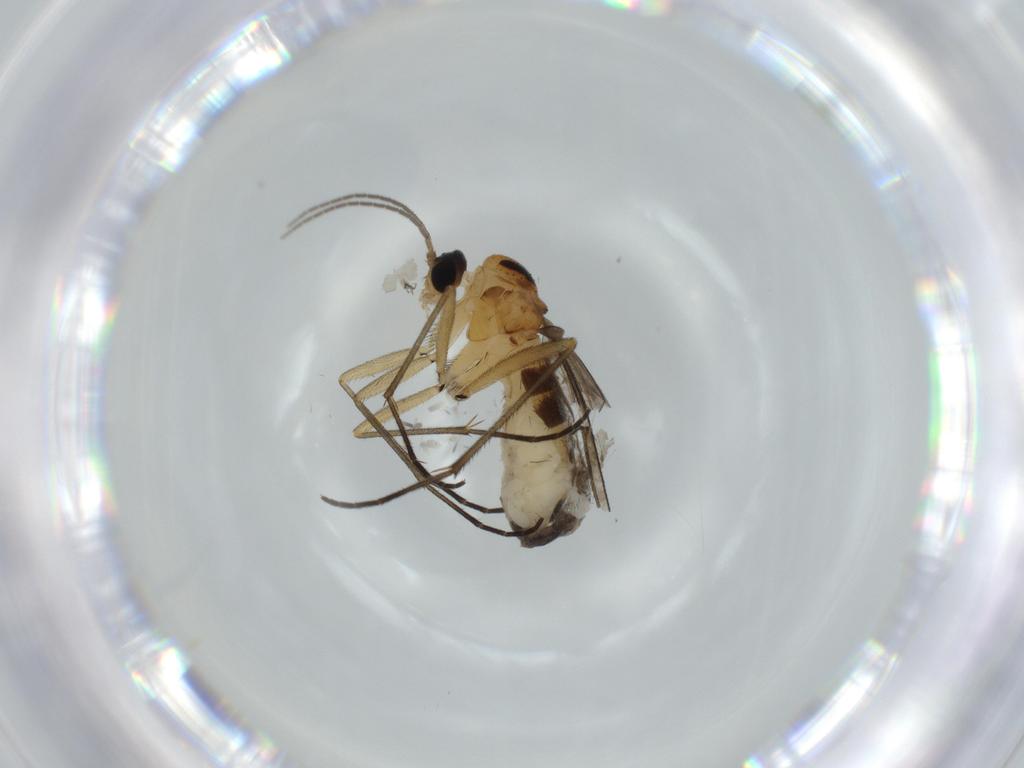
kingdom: Animalia
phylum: Arthropoda
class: Insecta
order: Diptera
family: Sciaridae
